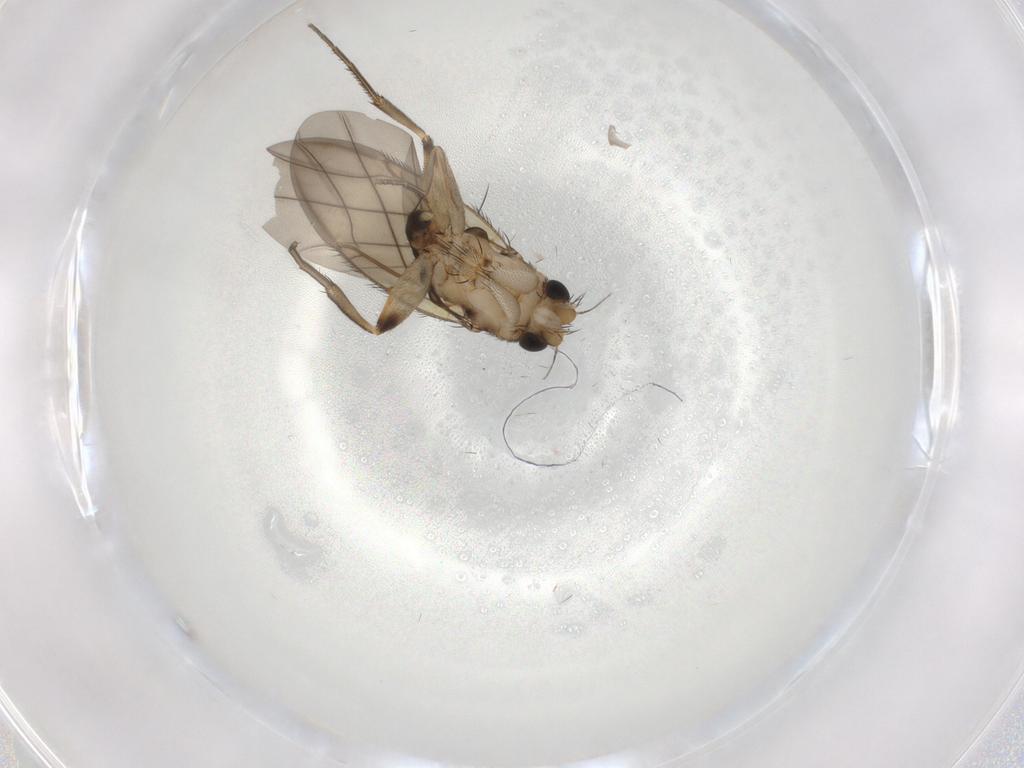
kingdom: Animalia
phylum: Arthropoda
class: Insecta
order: Diptera
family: Phoridae
